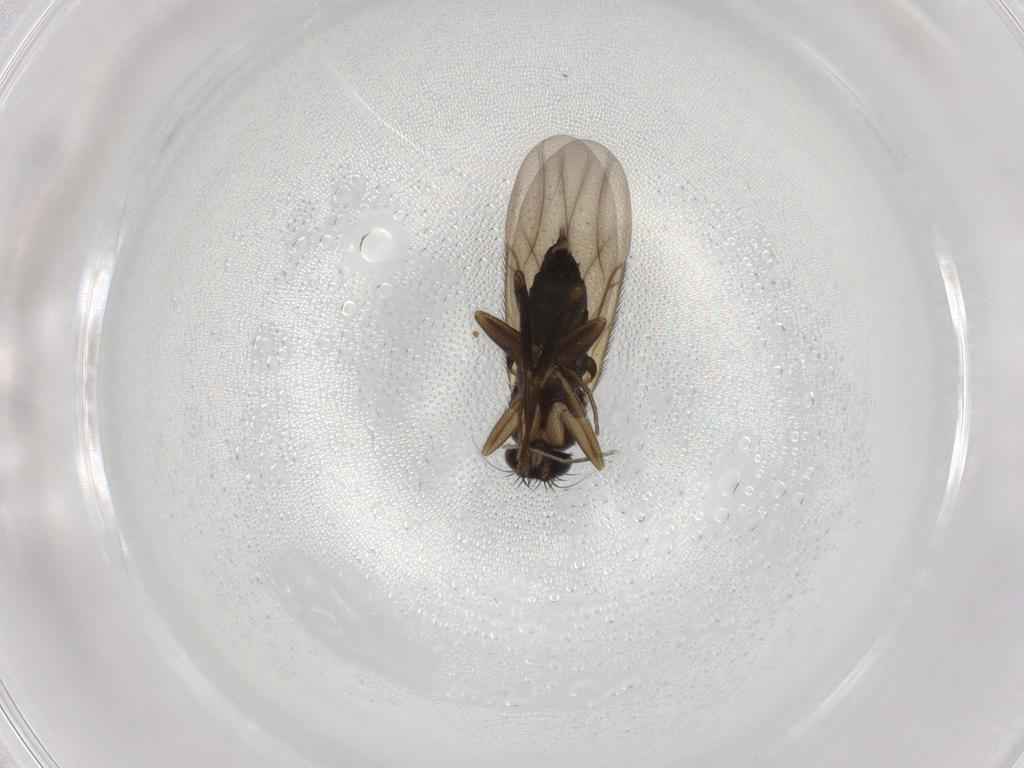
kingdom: Animalia
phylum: Arthropoda
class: Insecta
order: Diptera
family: Phoridae
